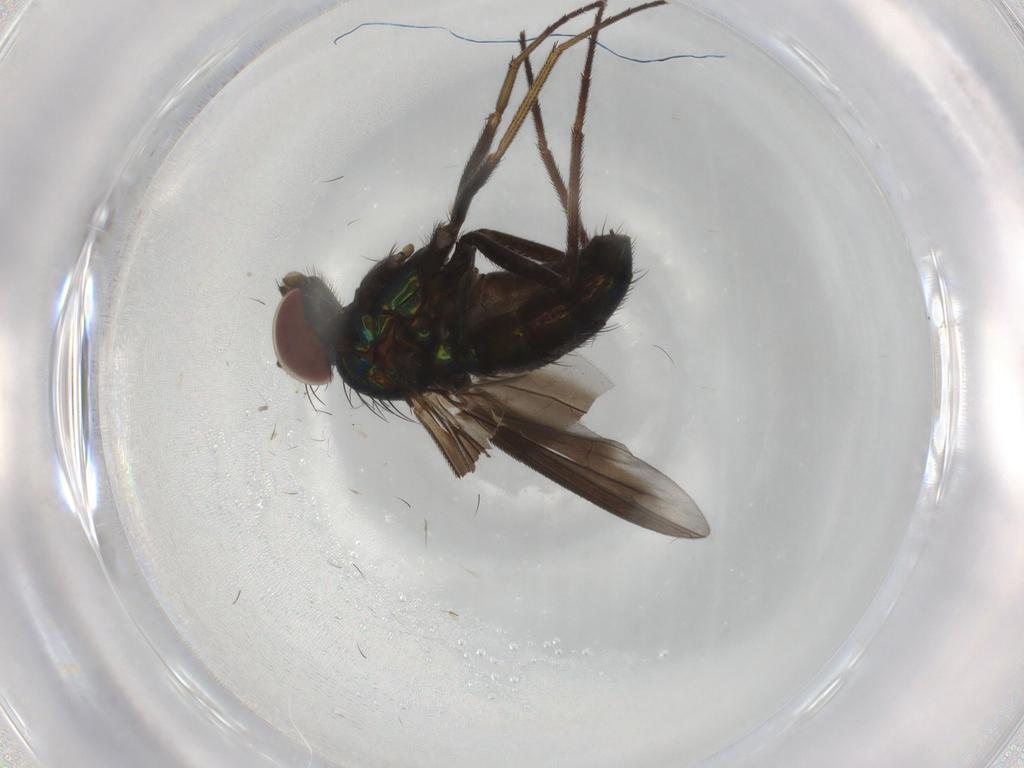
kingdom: Animalia
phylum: Arthropoda
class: Insecta
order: Diptera
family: Dolichopodidae
